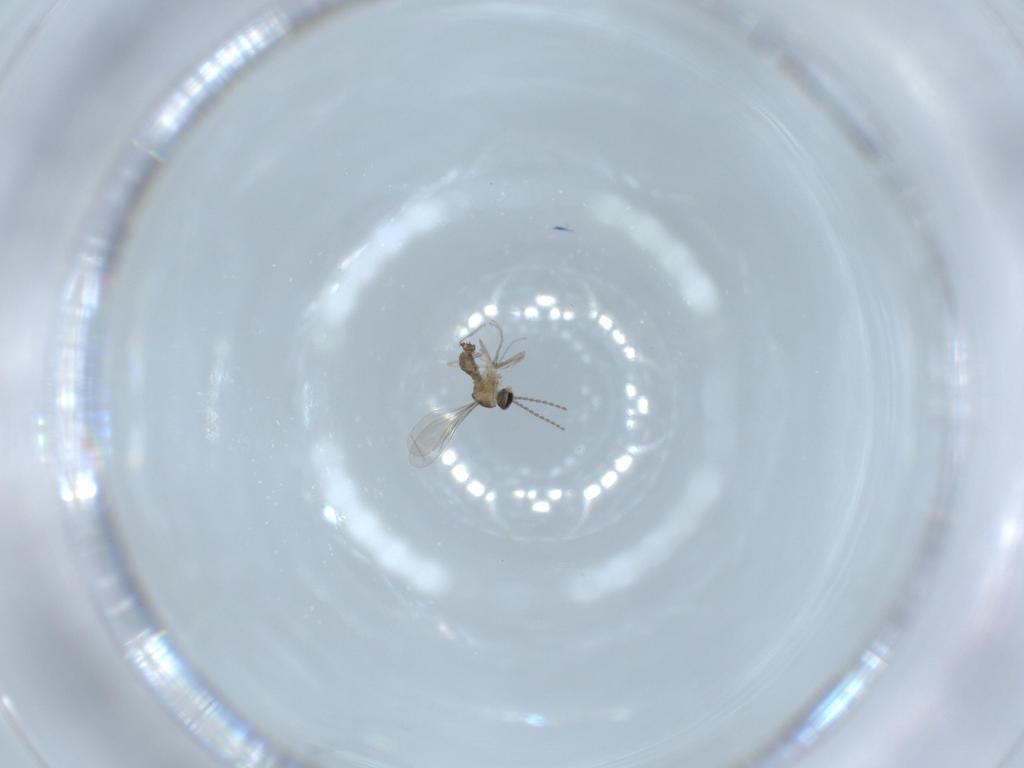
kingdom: Animalia
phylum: Arthropoda
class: Insecta
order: Diptera
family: Cecidomyiidae
